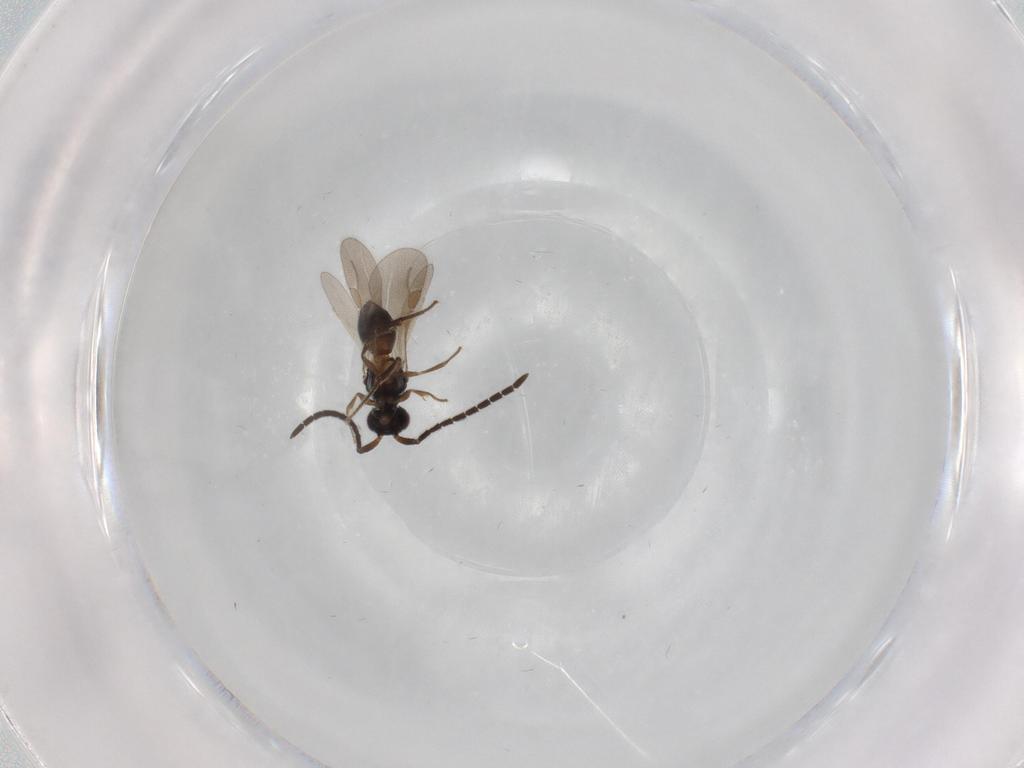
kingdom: Animalia
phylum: Arthropoda
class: Insecta
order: Hymenoptera
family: Megaspilidae
